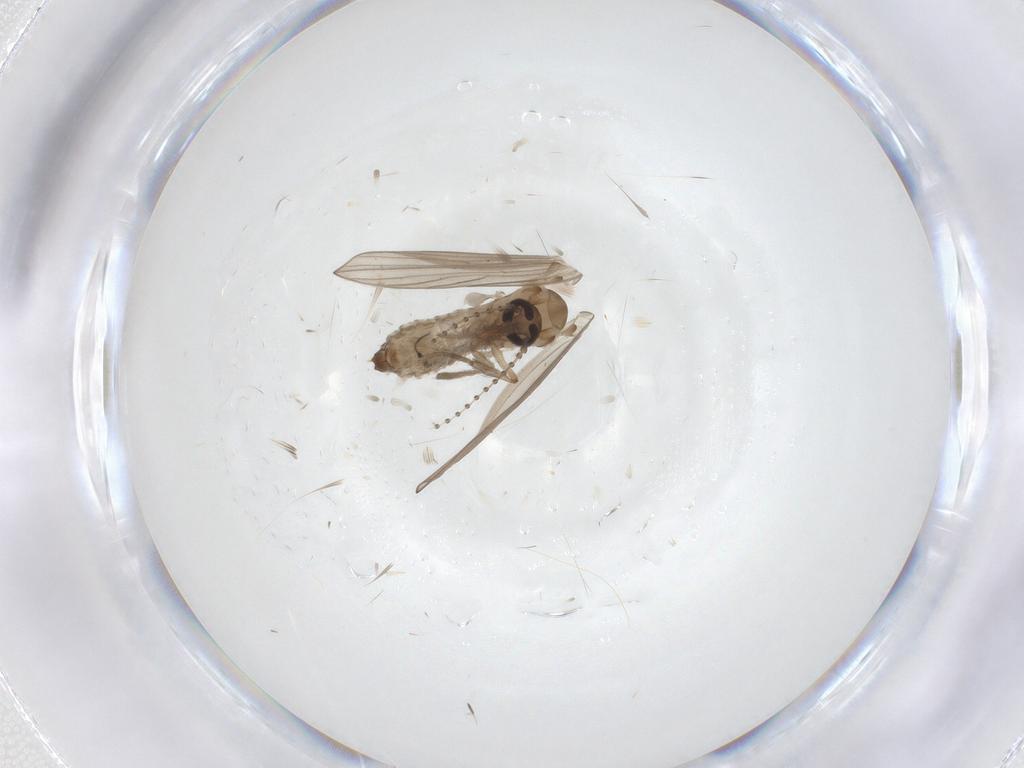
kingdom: Animalia
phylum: Arthropoda
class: Insecta
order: Diptera
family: Psychodidae
